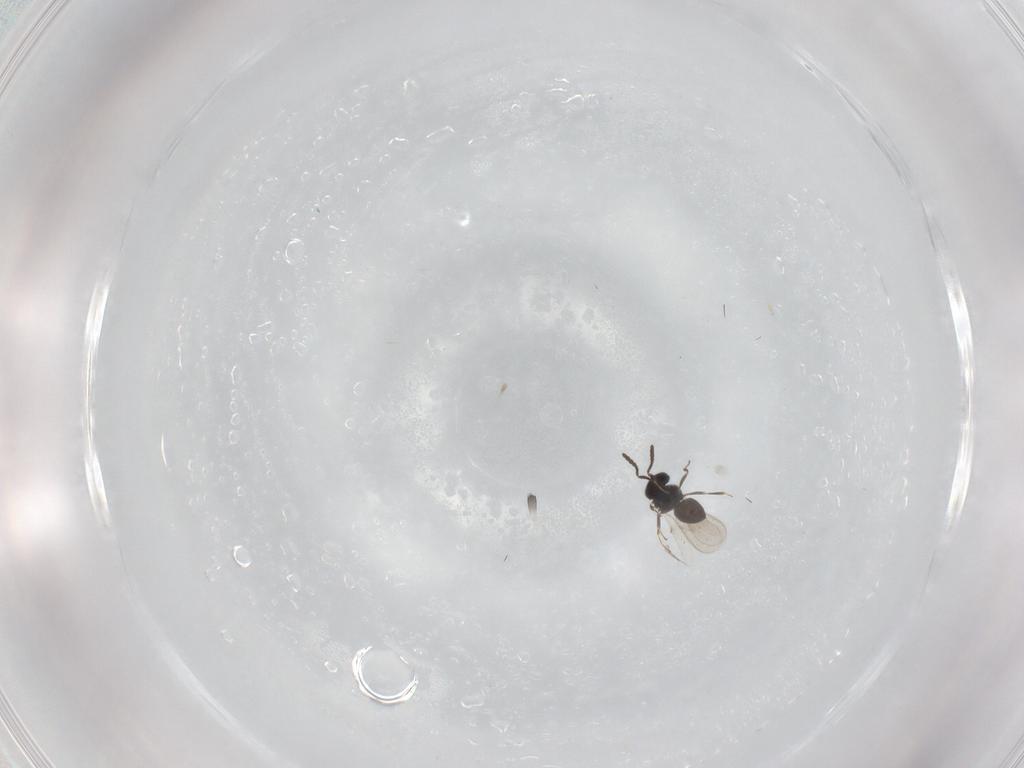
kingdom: Animalia
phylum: Arthropoda
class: Insecta
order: Hymenoptera
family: Scelionidae
